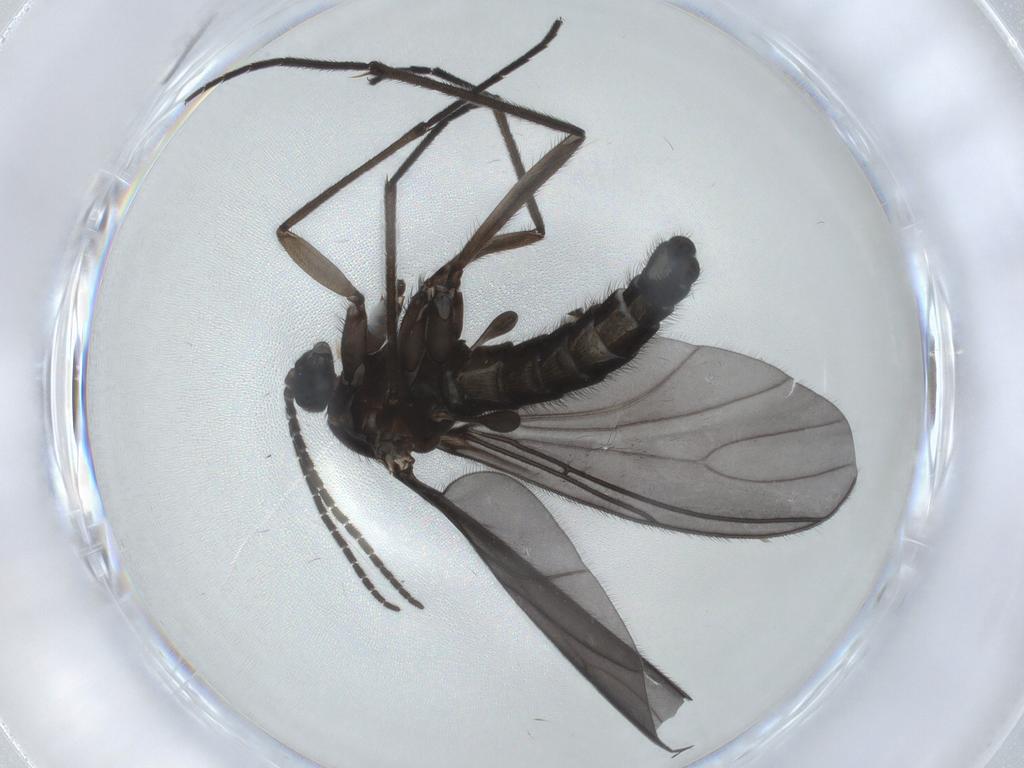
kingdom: Animalia
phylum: Arthropoda
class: Insecta
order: Diptera
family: Sciaridae
